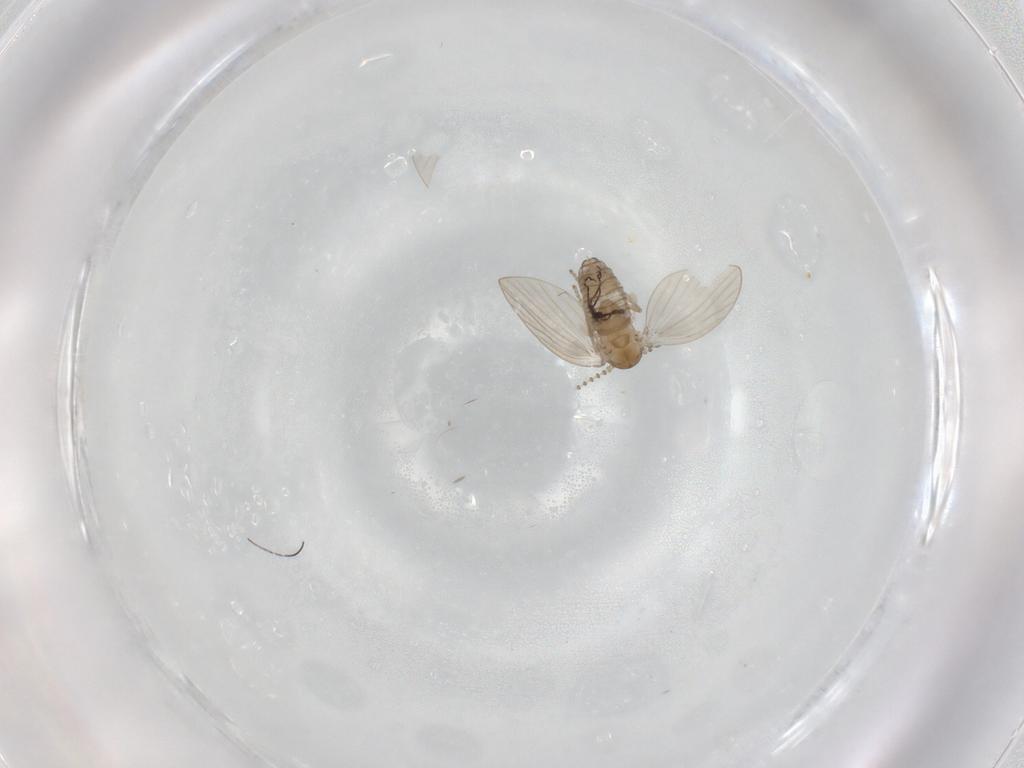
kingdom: Animalia
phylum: Arthropoda
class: Insecta
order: Diptera
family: Psychodidae
